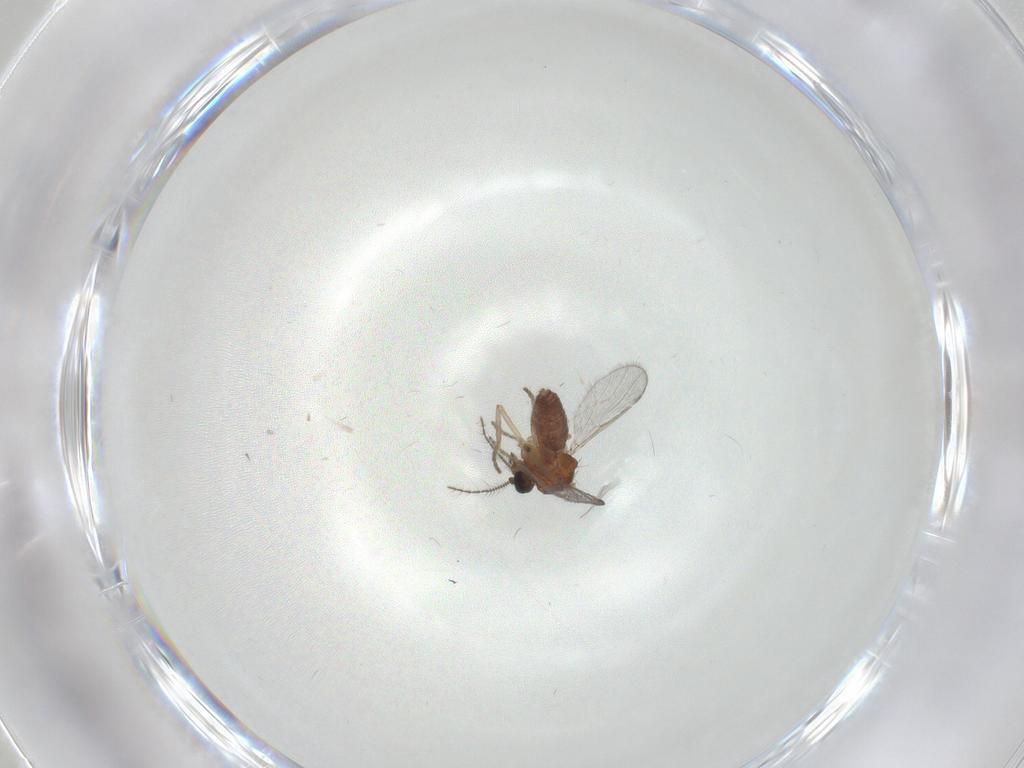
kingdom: Animalia
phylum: Arthropoda
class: Insecta
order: Diptera
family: Ceratopogonidae
